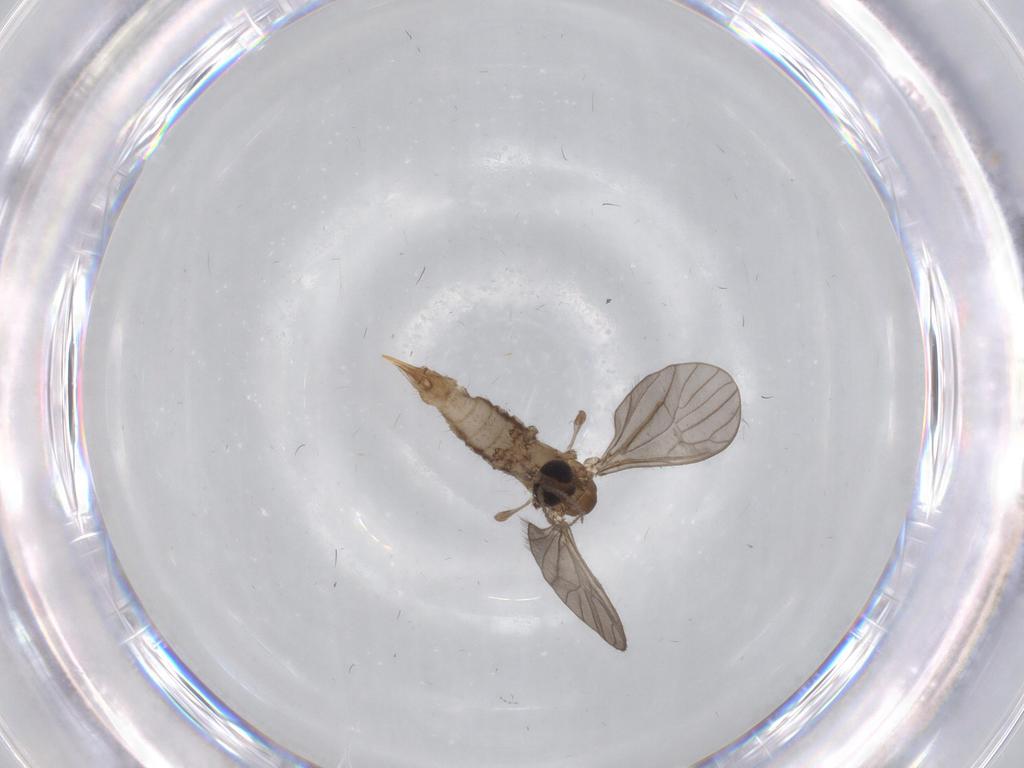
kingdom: Animalia
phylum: Arthropoda
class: Insecta
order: Diptera
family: Limoniidae
